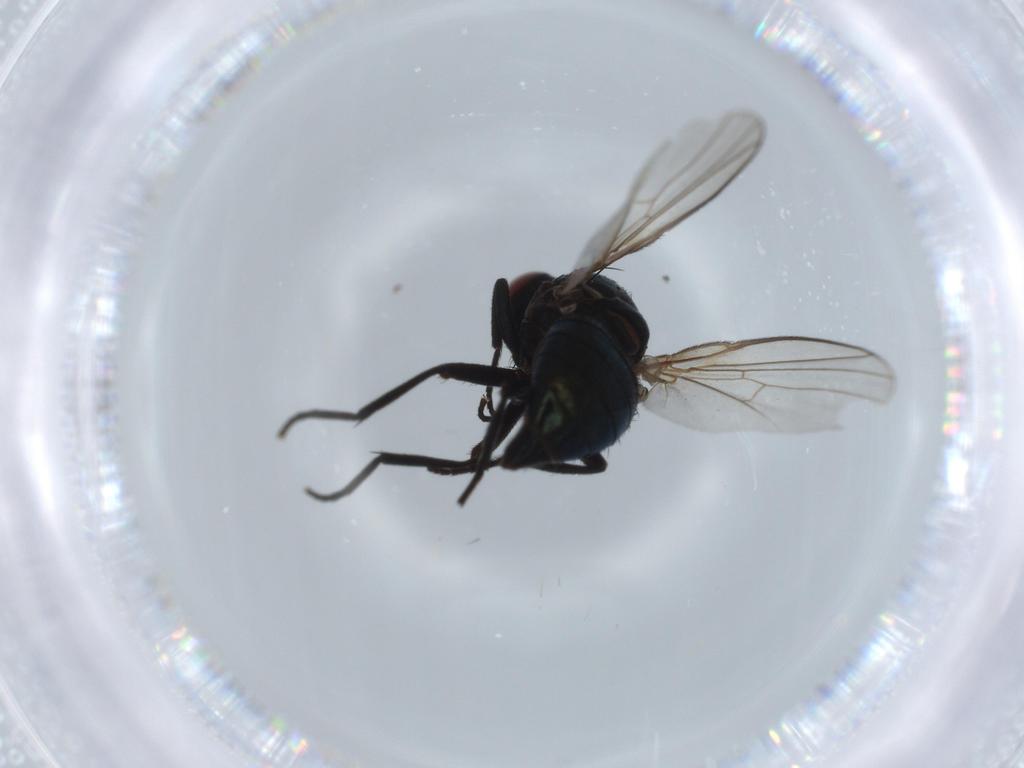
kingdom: Animalia
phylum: Arthropoda
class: Insecta
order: Diptera
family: Agromyzidae
